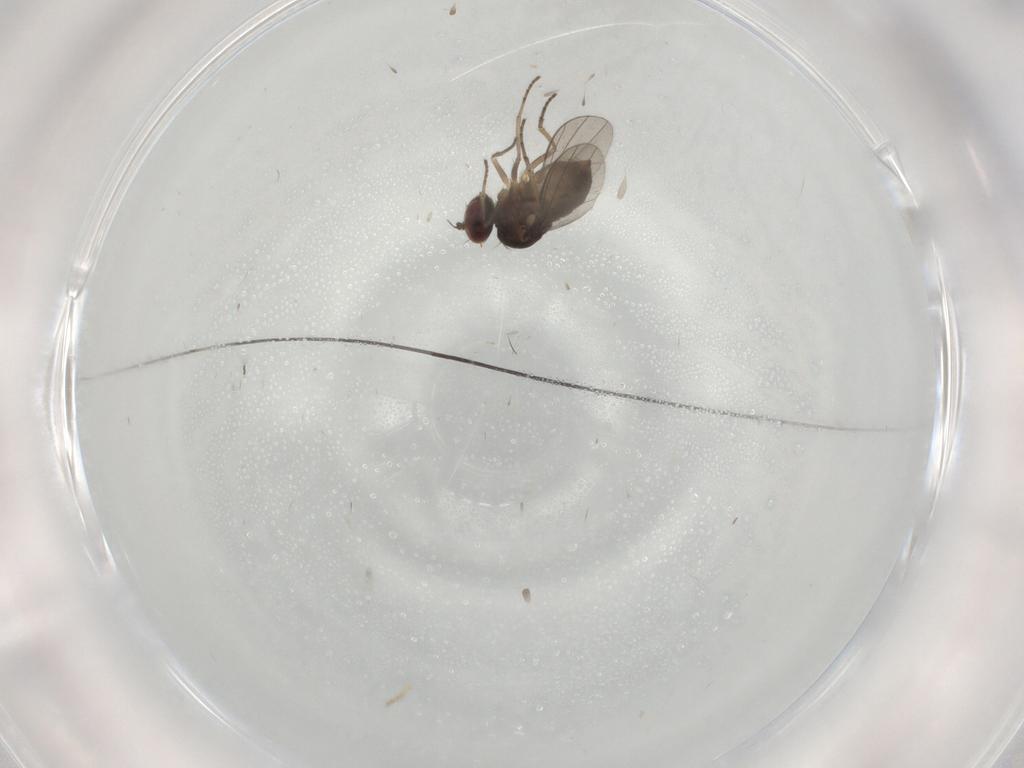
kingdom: Animalia
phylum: Arthropoda
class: Insecta
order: Diptera
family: Dolichopodidae
